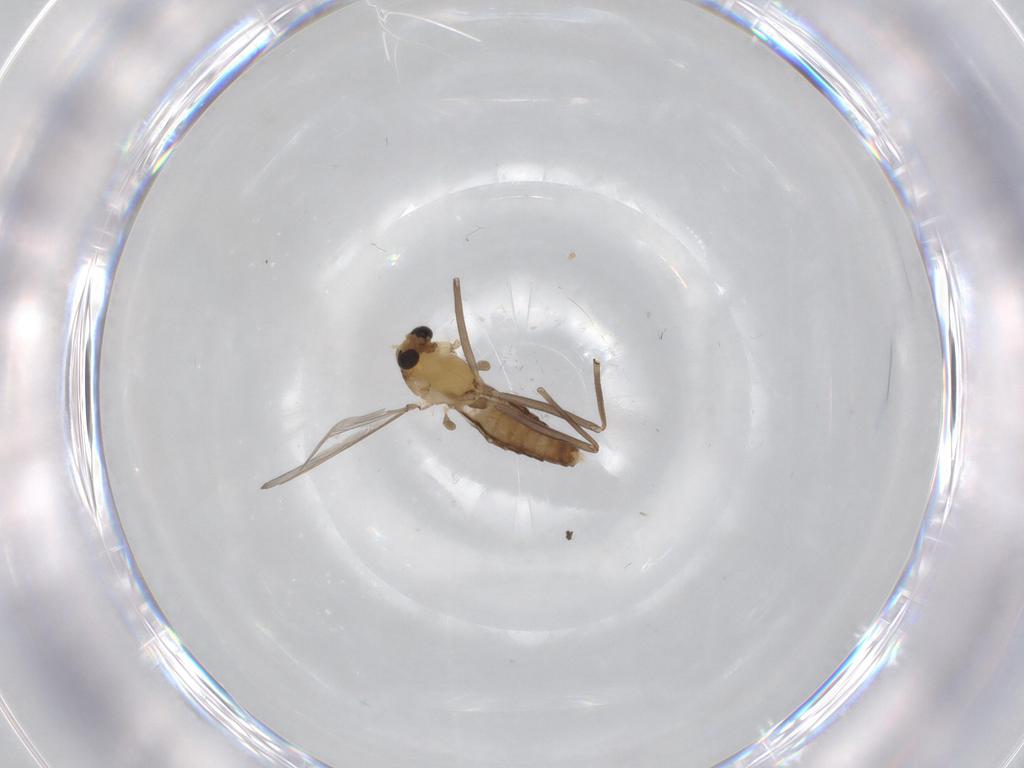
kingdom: Animalia
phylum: Arthropoda
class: Insecta
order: Diptera
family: Chironomidae
